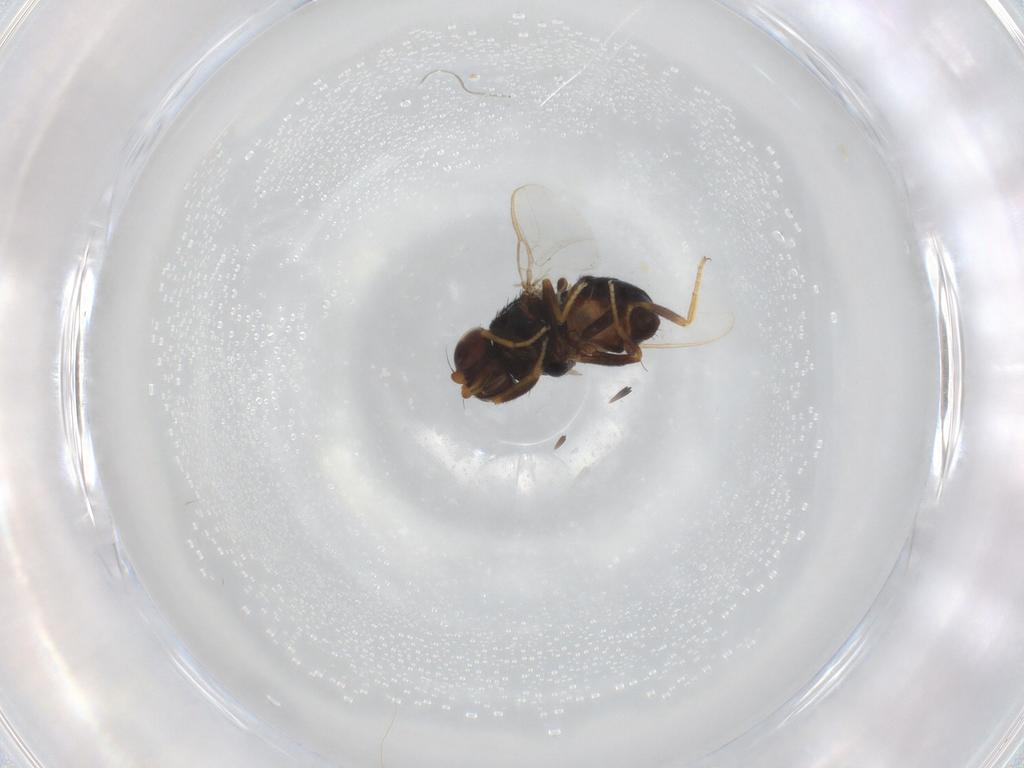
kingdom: Animalia
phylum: Arthropoda
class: Insecta
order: Diptera
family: Chloropidae
